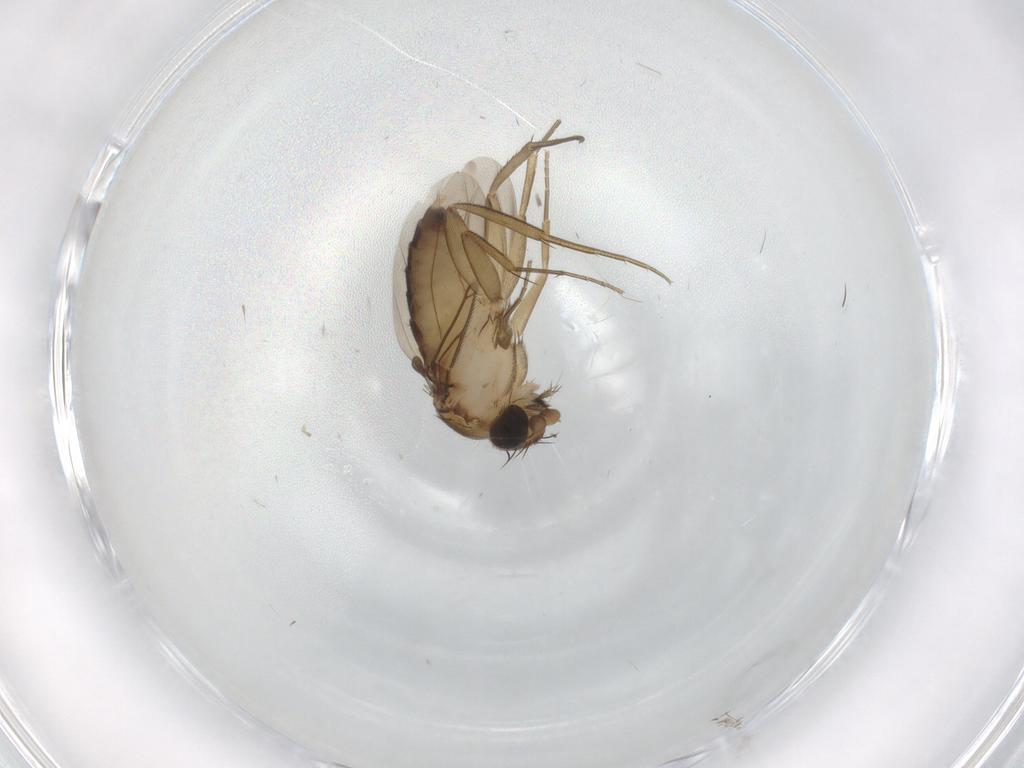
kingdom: Animalia
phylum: Arthropoda
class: Insecta
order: Diptera
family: Phoridae
